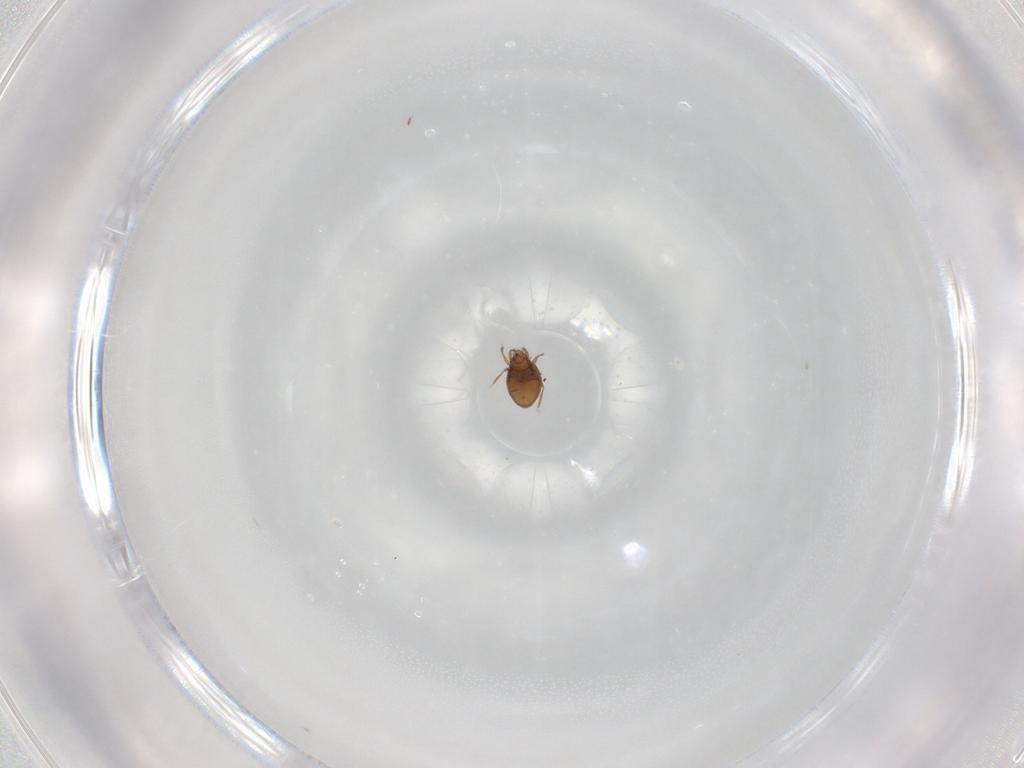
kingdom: Animalia
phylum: Arthropoda
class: Arachnida
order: Sarcoptiformes
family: Oribatulidae
